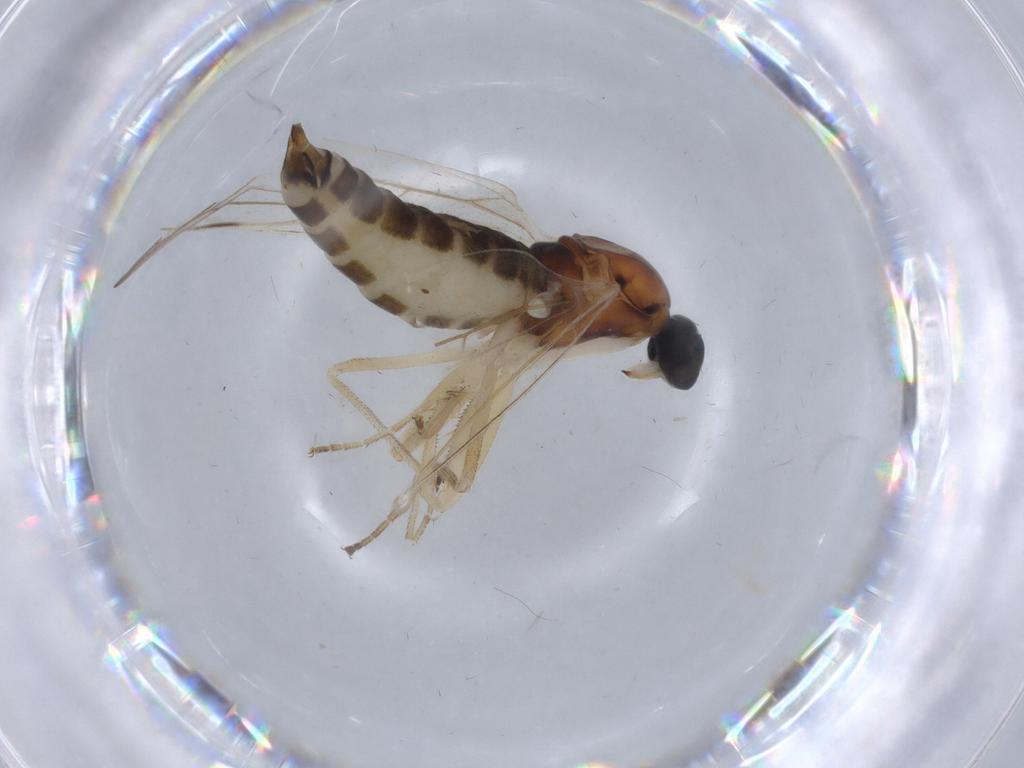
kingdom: Animalia
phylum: Arthropoda
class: Insecta
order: Diptera
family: Empididae
